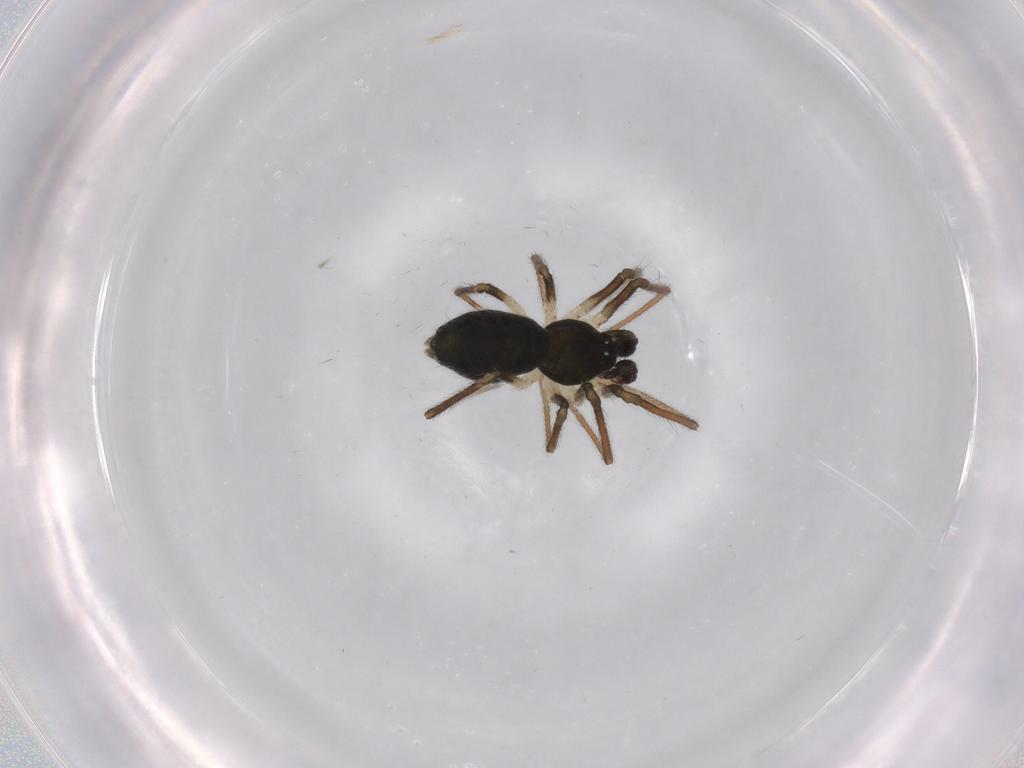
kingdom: Animalia
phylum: Arthropoda
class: Arachnida
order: Araneae
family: Linyphiidae
